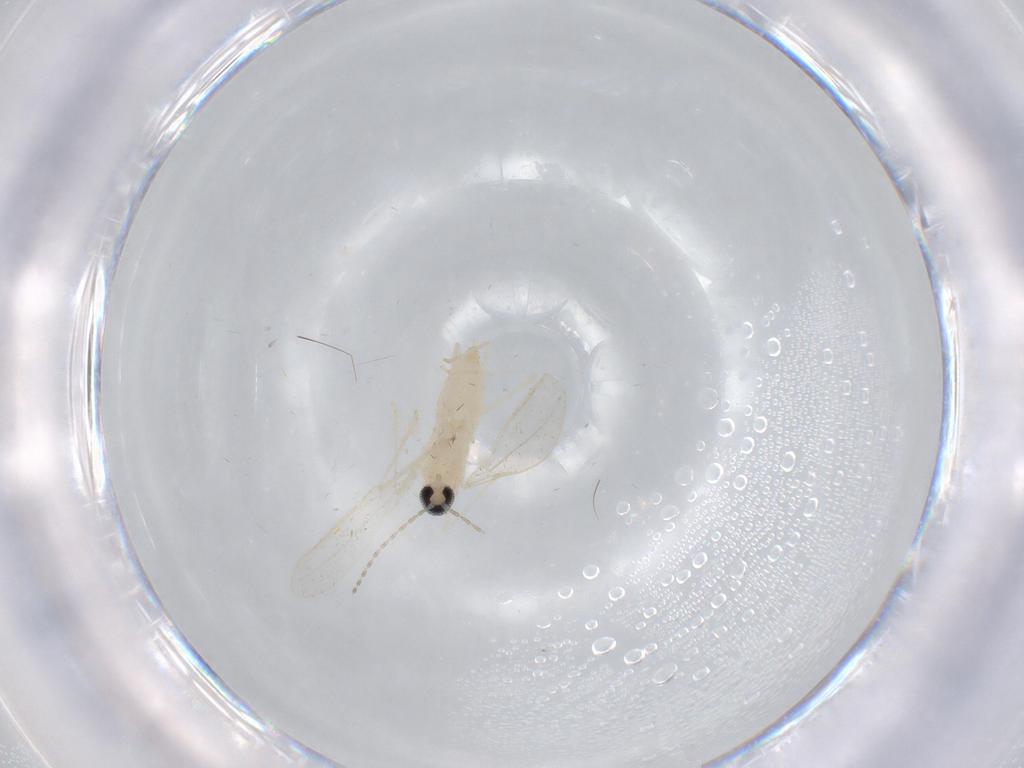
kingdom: Animalia
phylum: Arthropoda
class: Insecta
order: Diptera
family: Cecidomyiidae
